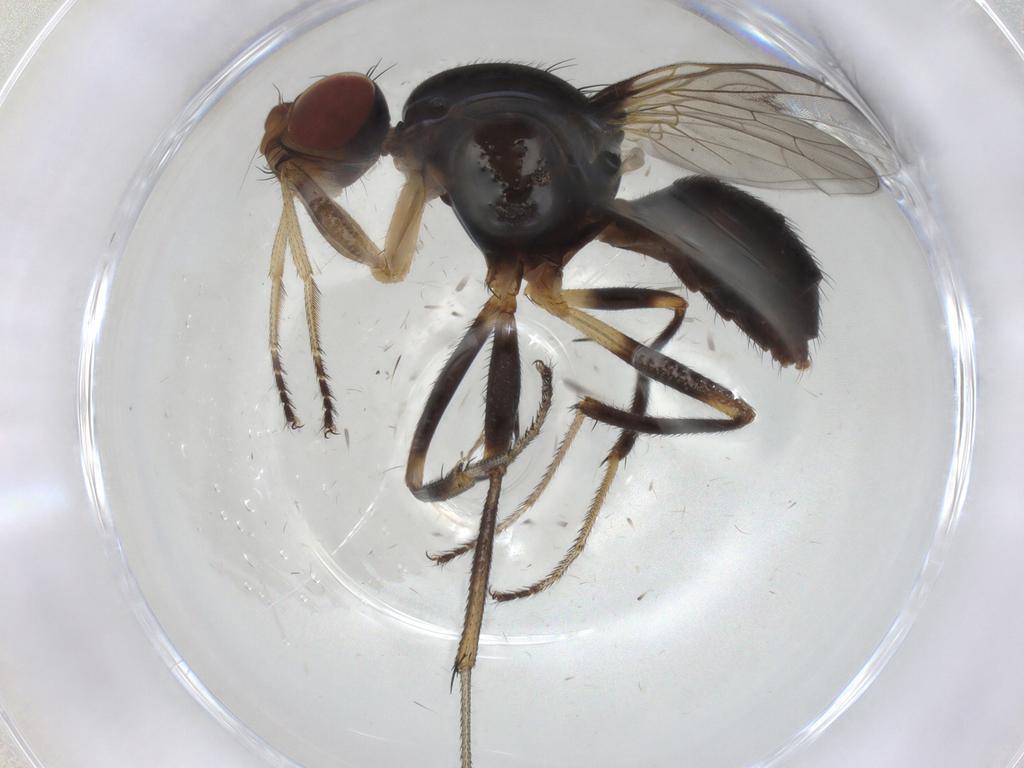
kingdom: Animalia
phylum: Arthropoda
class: Insecta
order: Diptera
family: Sepsidae
